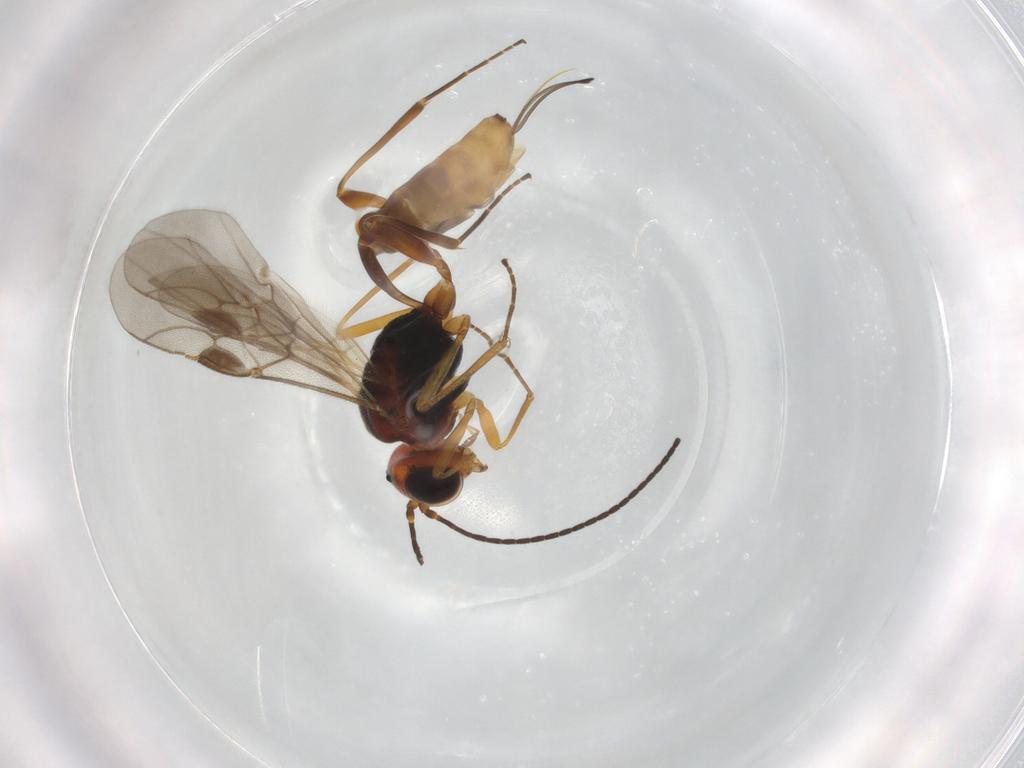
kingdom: Animalia
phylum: Arthropoda
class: Insecta
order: Hymenoptera
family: Braconidae
